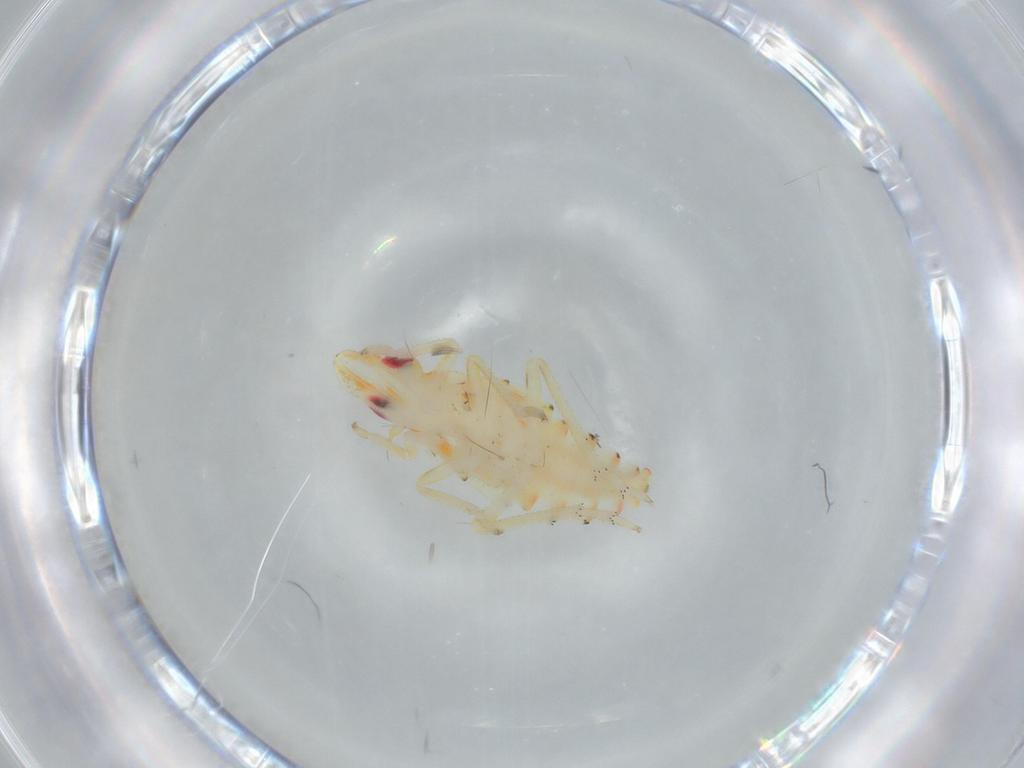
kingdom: Animalia
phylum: Arthropoda
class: Insecta
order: Hemiptera
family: Tropiduchidae
